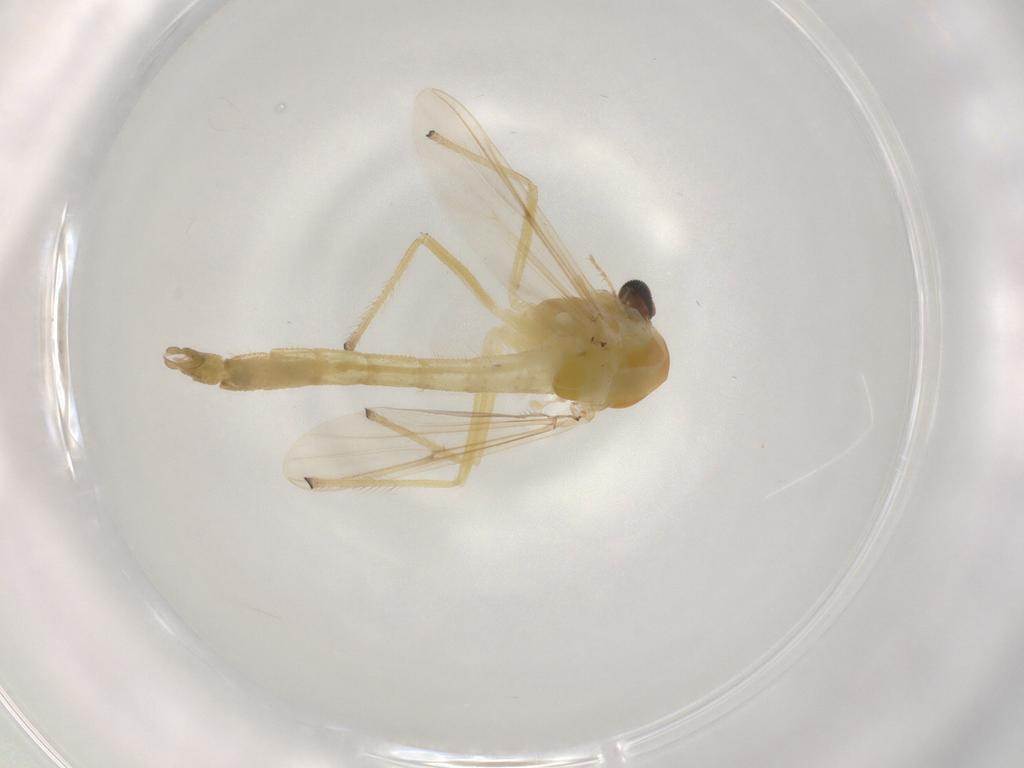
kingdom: Animalia
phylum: Arthropoda
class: Insecta
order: Diptera
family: Chironomidae
